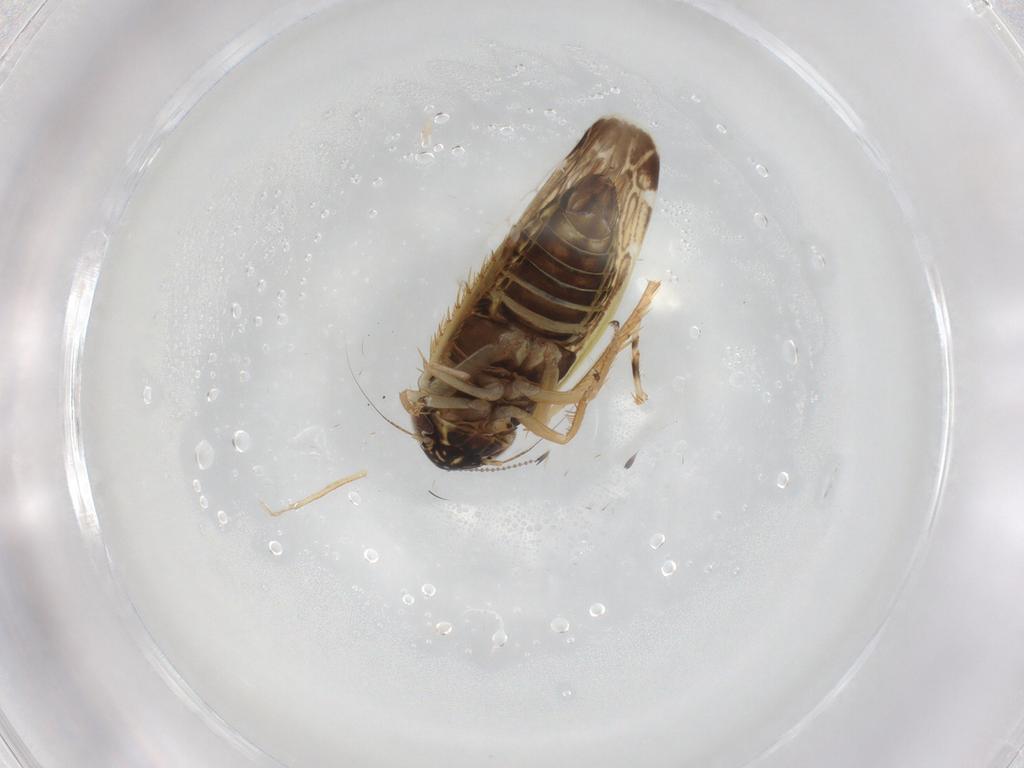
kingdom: Animalia
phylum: Arthropoda
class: Insecta
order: Hemiptera
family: Cicadellidae
